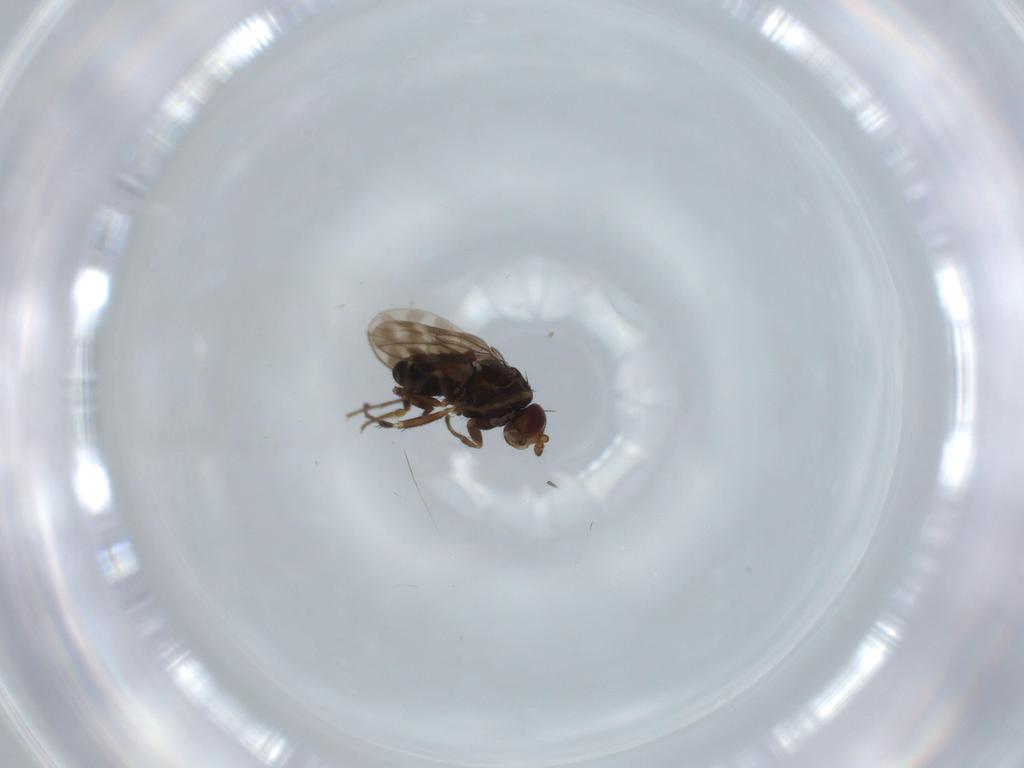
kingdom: Animalia
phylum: Arthropoda
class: Insecta
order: Diptera
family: Sphaeroceridae
